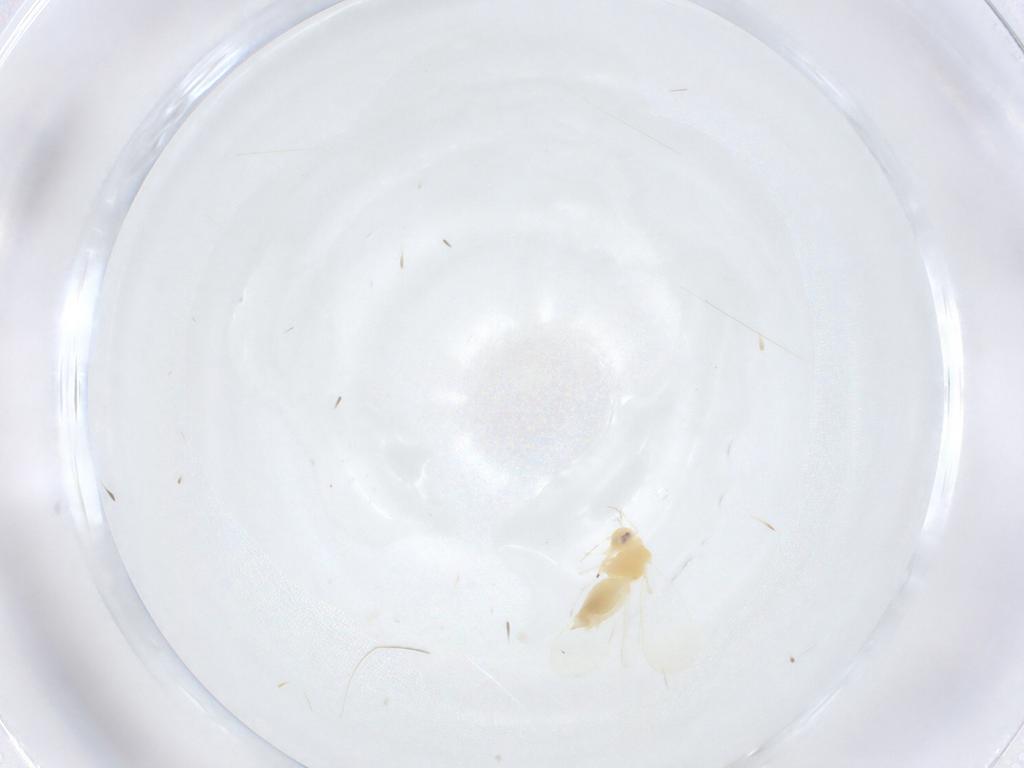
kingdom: Animalia
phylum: Arthropoda
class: Insecta
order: Hemiptera
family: Aleyrodidae
